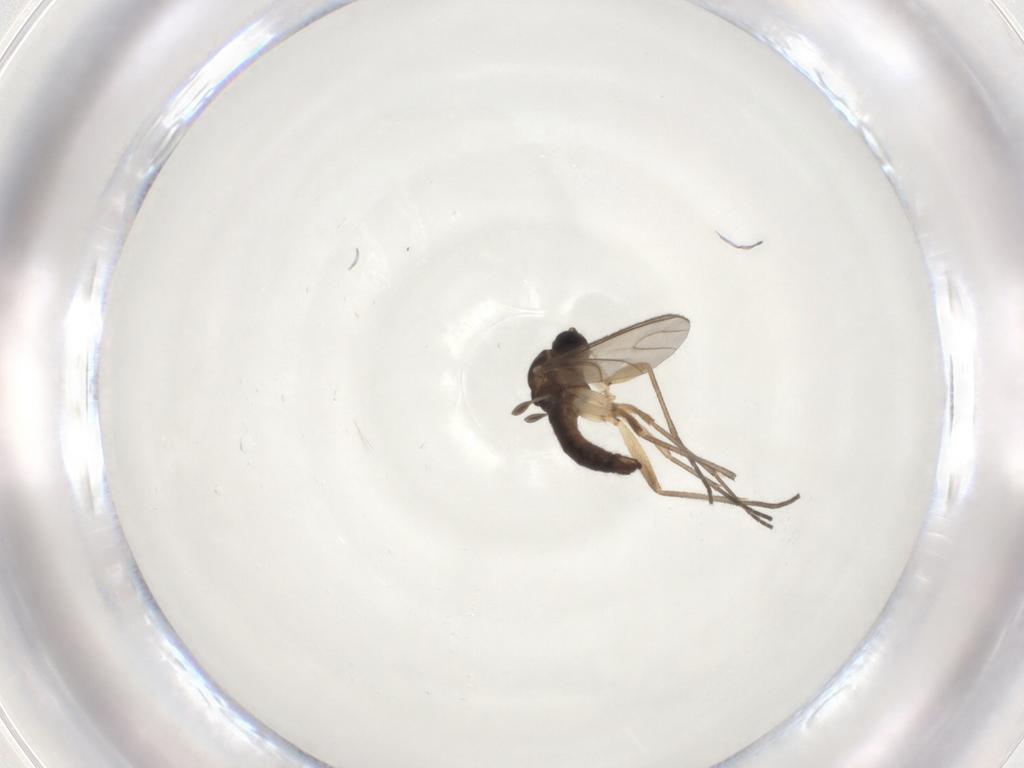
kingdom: Animalia
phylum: Arthropoda
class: Insecta
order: Diptera
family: Sciaridae
